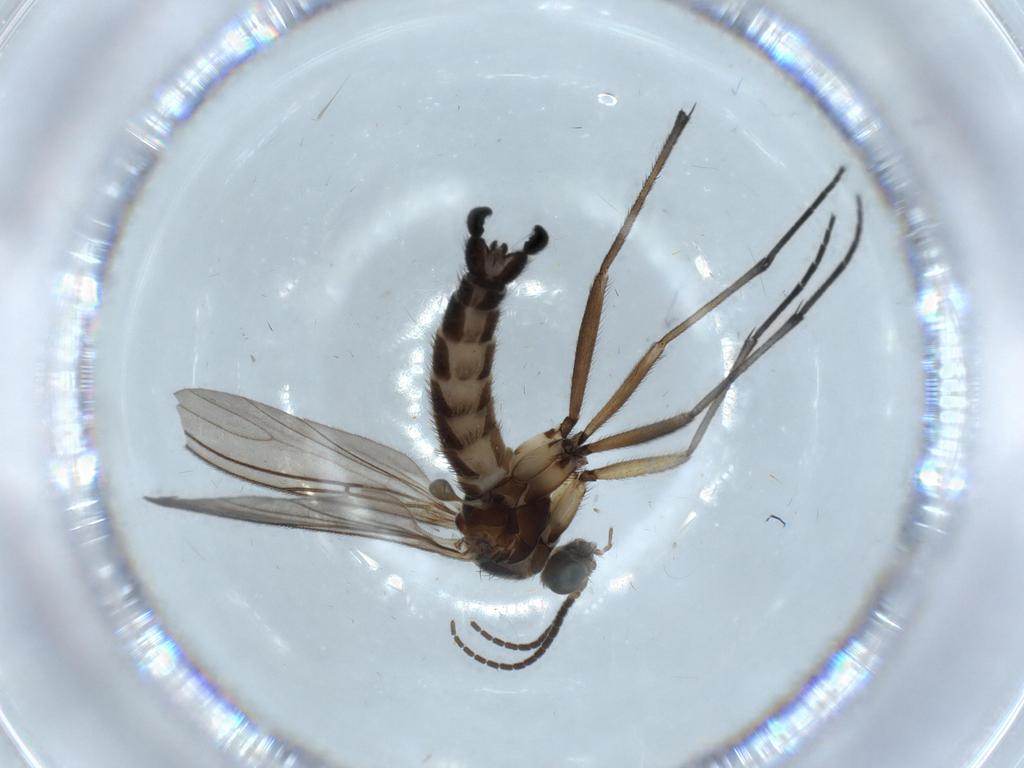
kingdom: Animalia
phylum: Arthropoda
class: Insecta
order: Diptera
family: Sciaridae
